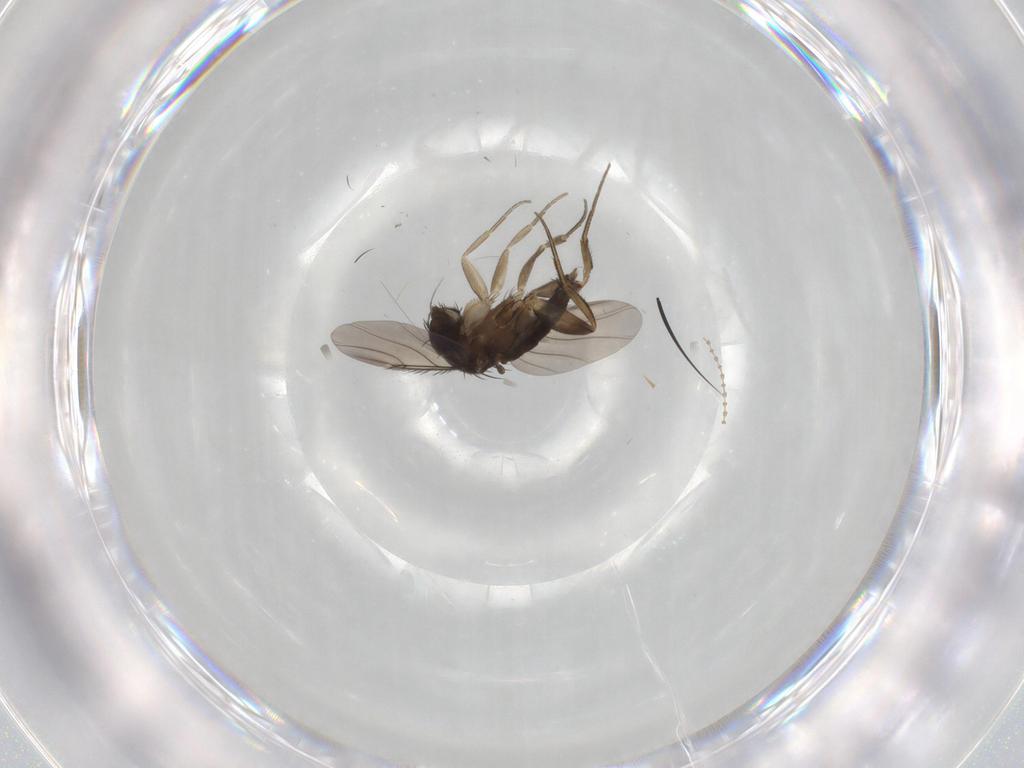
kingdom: Animalia
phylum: Arthropoda
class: Insecta
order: Diptera
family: Phoridae
